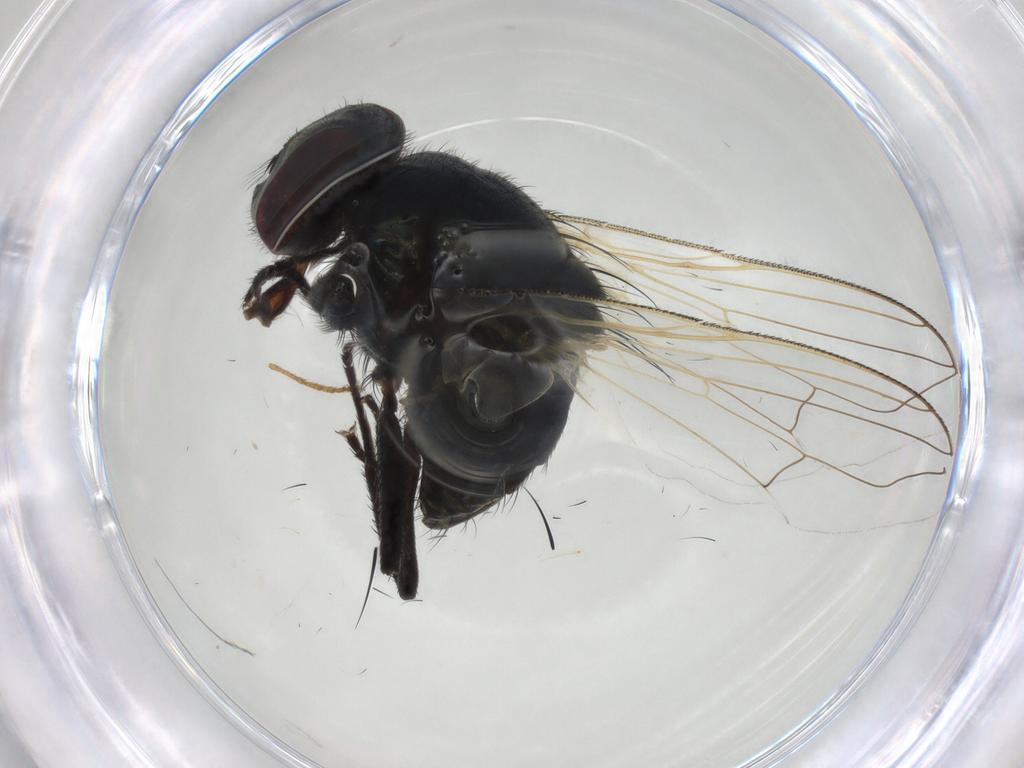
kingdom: Animalia
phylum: Arthropoda
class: Insecta
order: Diptera
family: Muscidae
